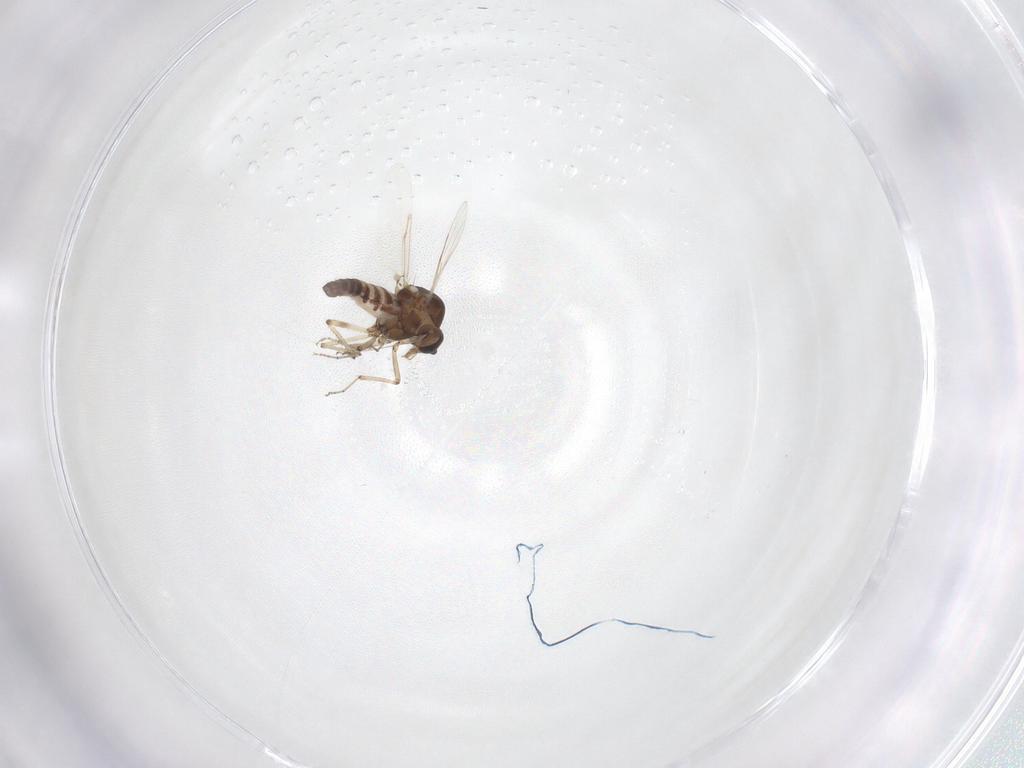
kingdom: Animalia
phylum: Arthropoda
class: Insecta
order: Diptera
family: Ceratopogonidae
